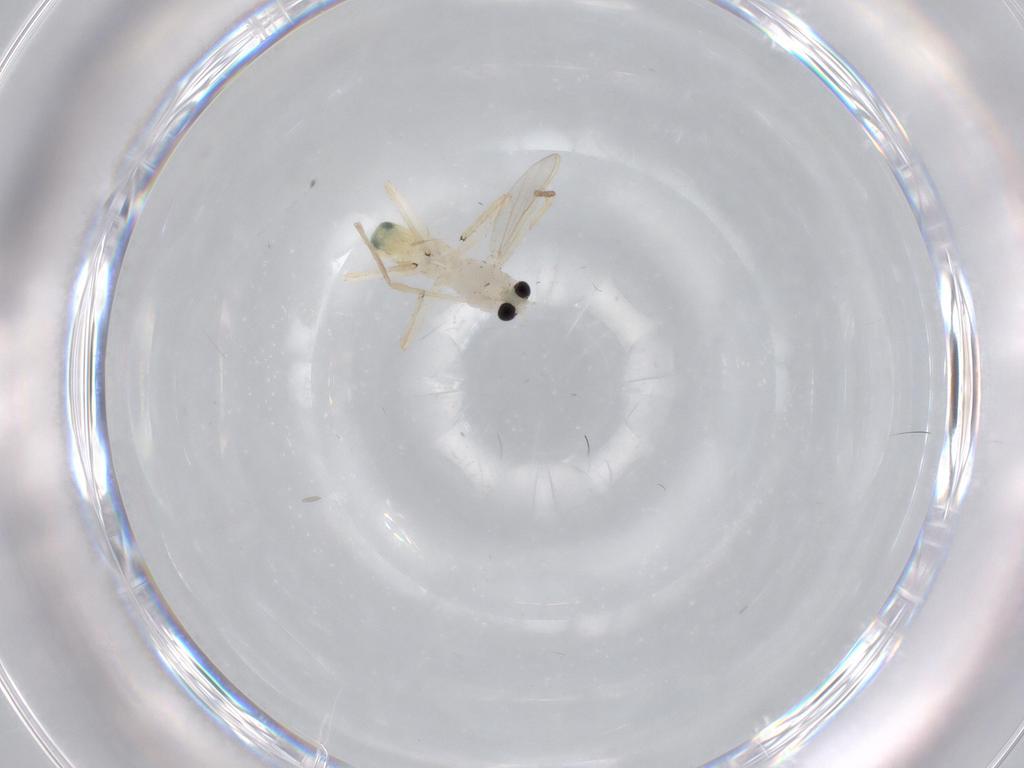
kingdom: Animalia
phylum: Arthropoda
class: Insecta
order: Diptera
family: Chironomidae
